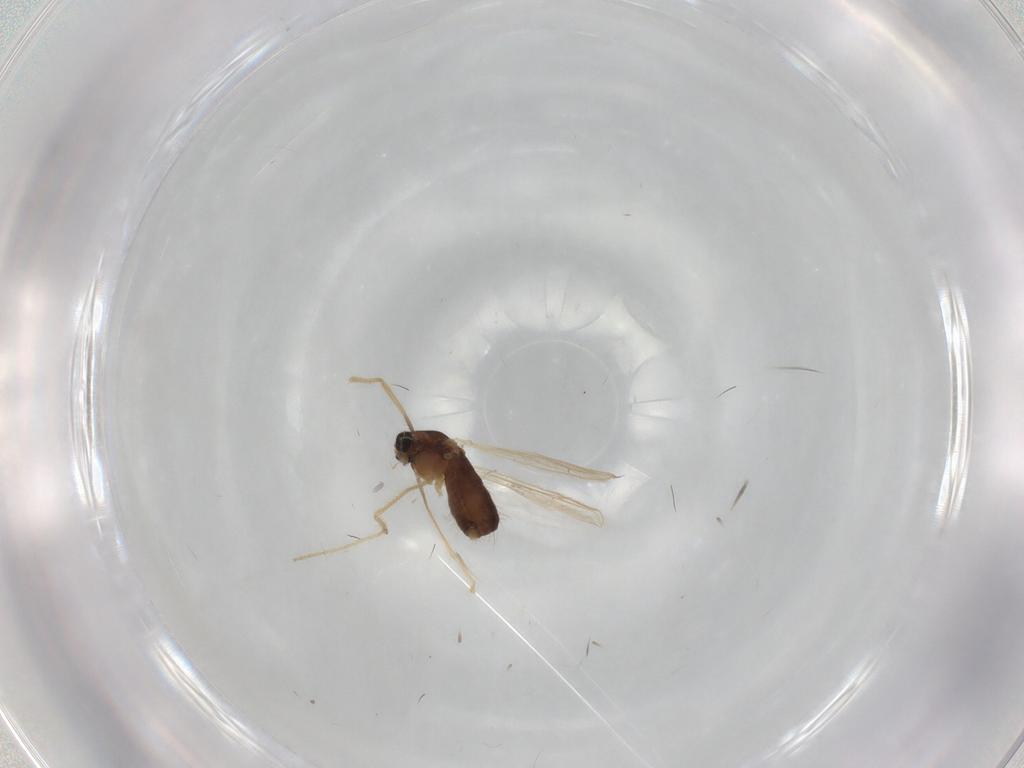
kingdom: Animalia
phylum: Arthropoda
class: Insecta
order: Diptera
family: Chironomidae
